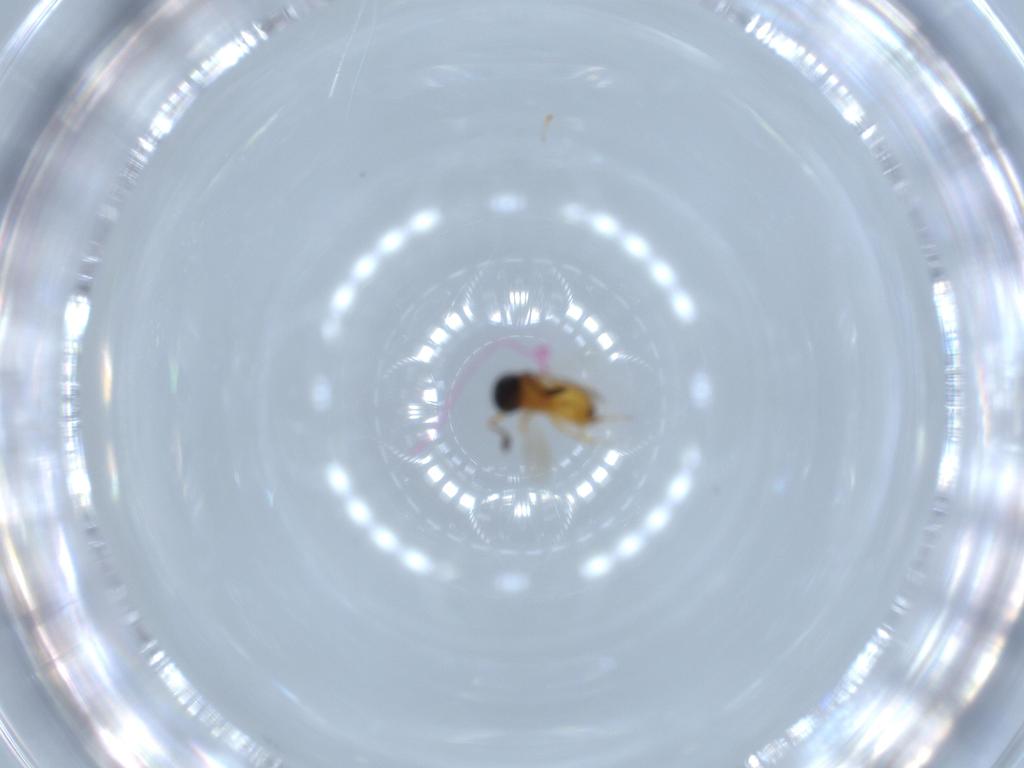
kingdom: Animalia
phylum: Arthropoda
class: Insecta
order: Hymenoptera
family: Scelionidae
